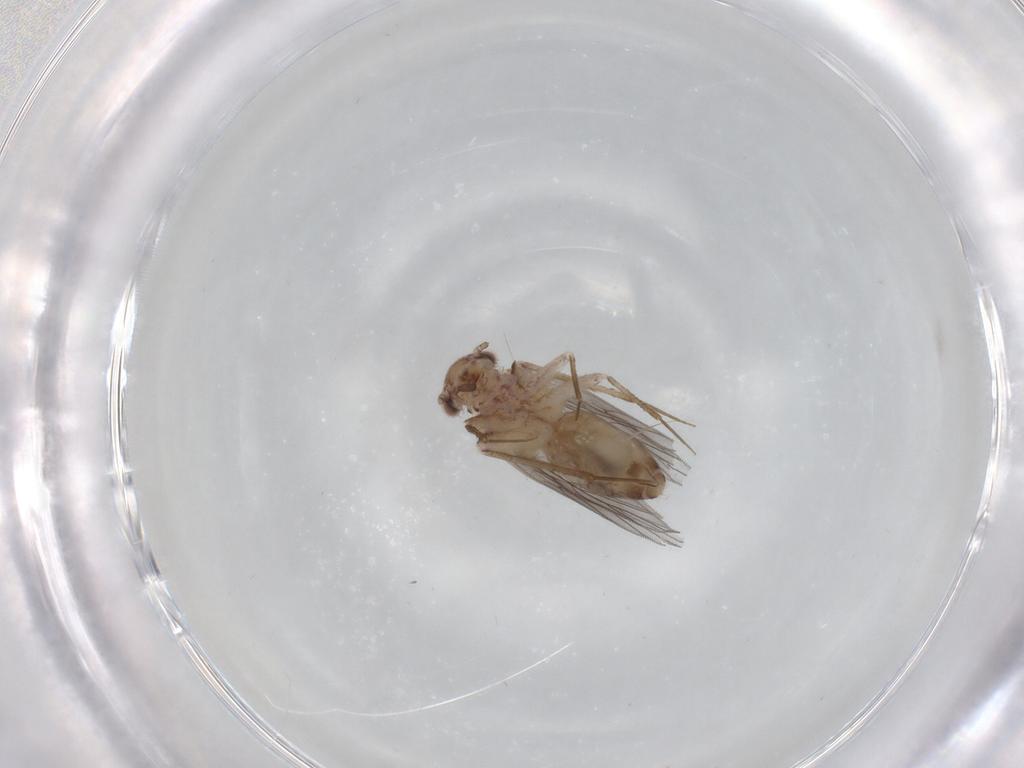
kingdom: Animalia
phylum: Arthropoda
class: Insecta
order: Psocodea
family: Lepidopsocidae
